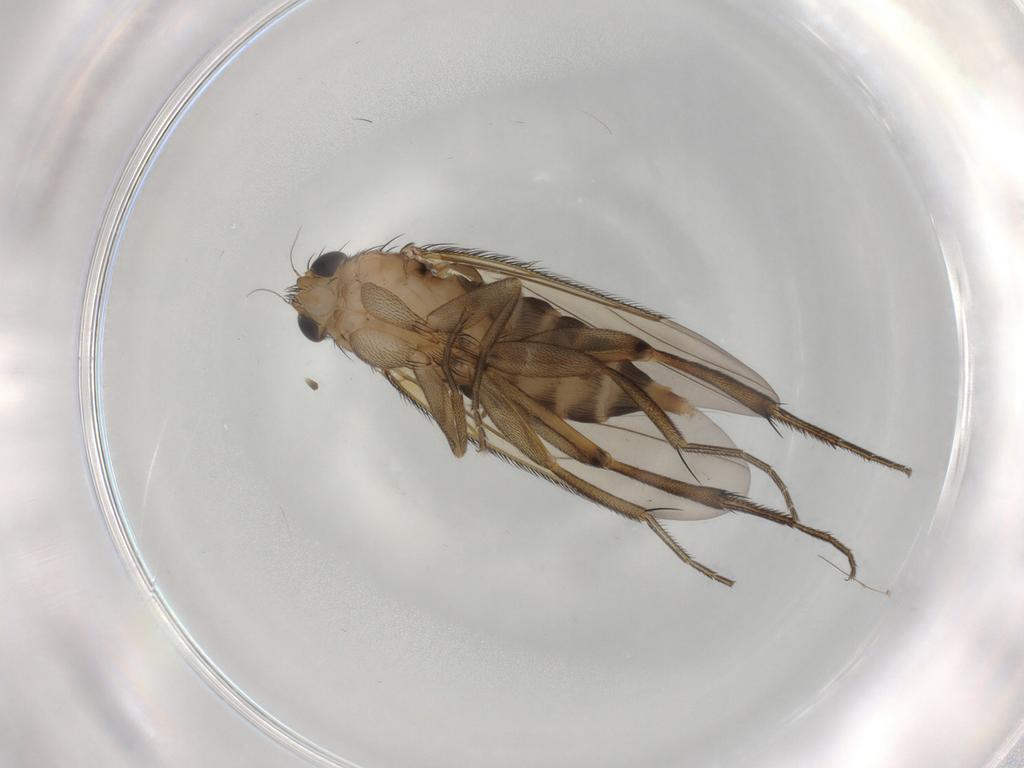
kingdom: Animalia
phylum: Arthropoda
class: Insecta
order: Diptera
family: Phoridae
